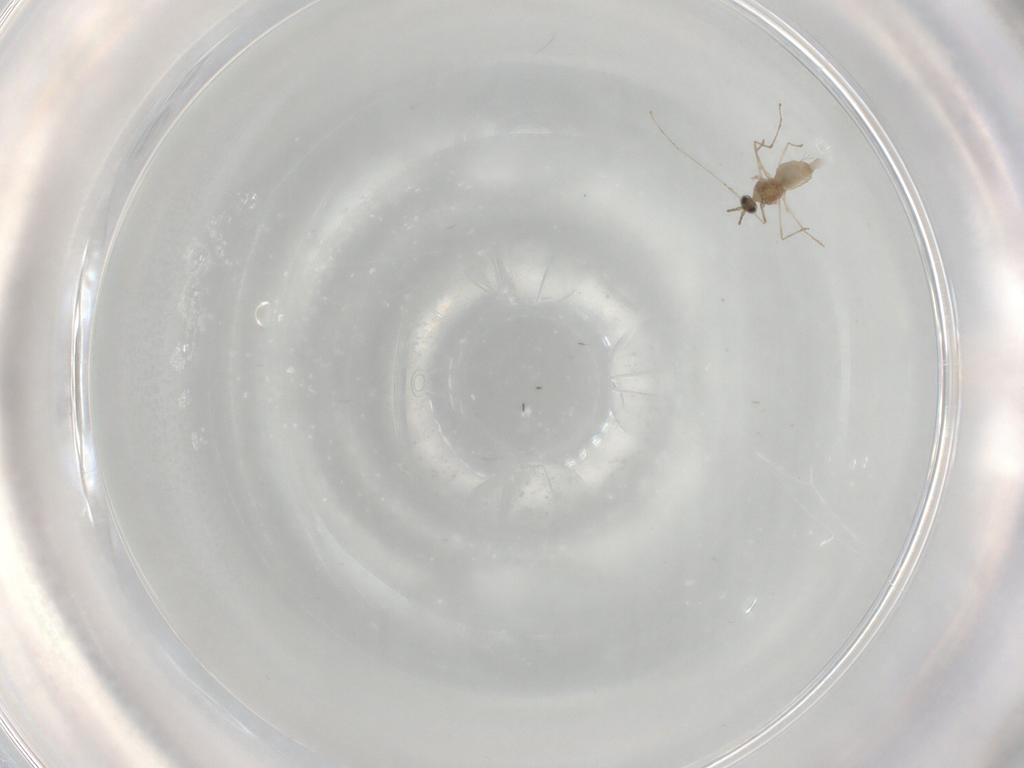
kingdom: Animalia
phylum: Arthropoda
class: Insecta
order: Diptera
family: Cecidomyiidae
